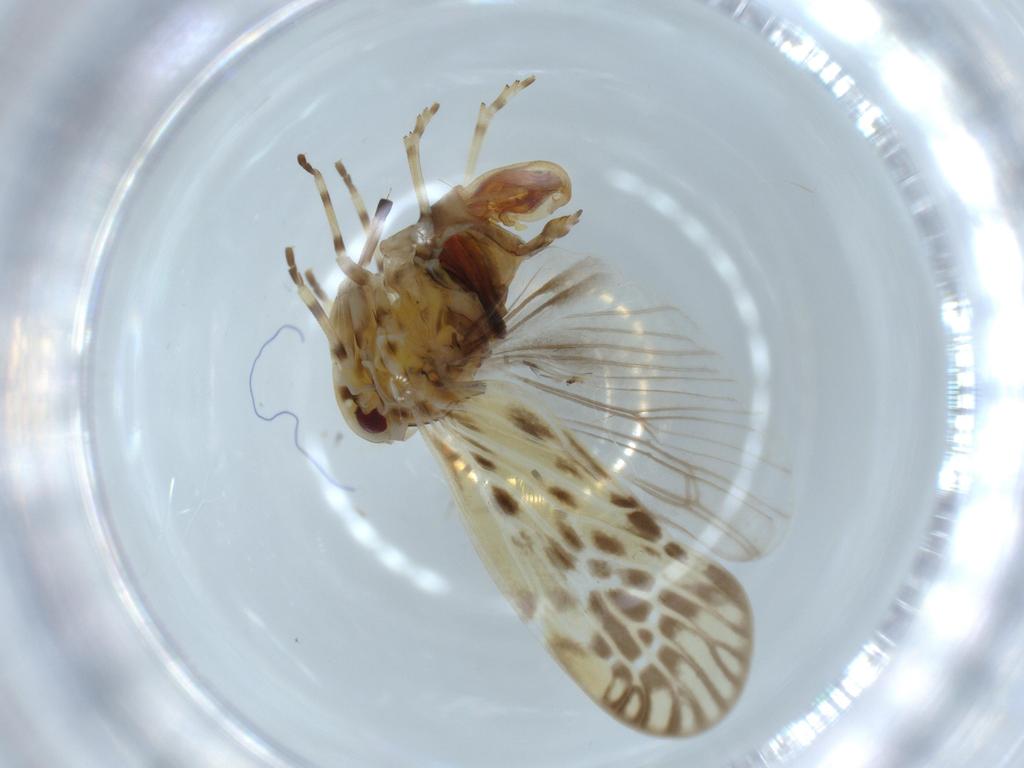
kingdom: Animalia
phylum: Arthropoda
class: Insecta
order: Hemiptera
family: Derbidae
